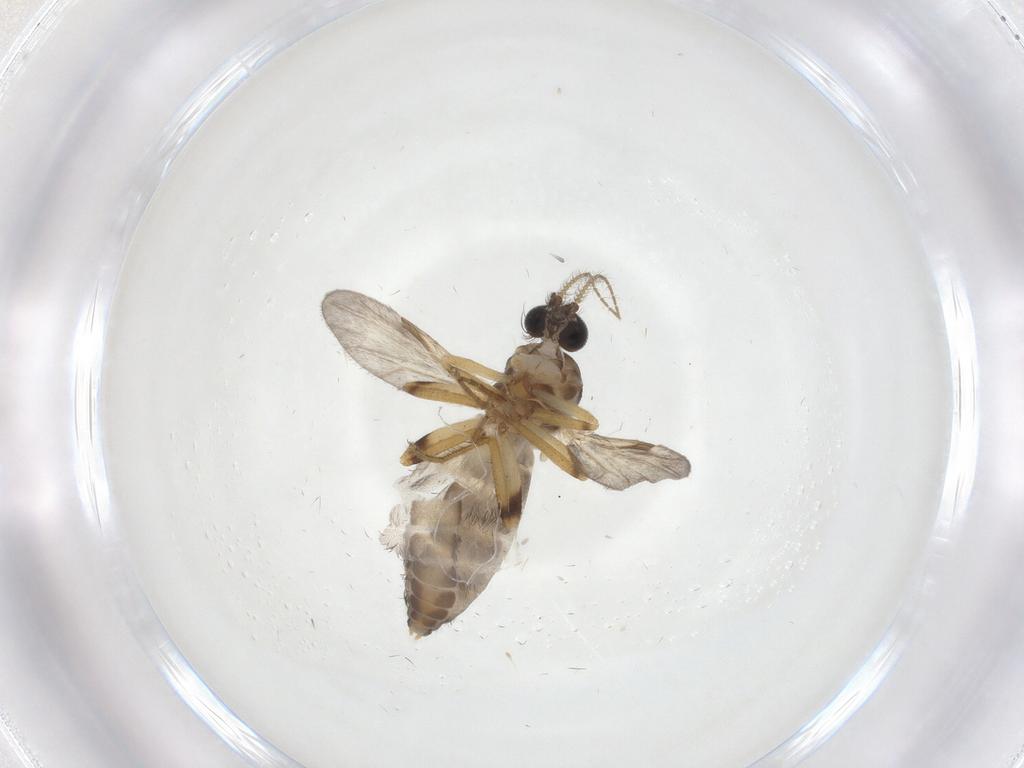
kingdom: Animalia
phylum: Arthropoda
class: Insecta
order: Diptera
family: Ceratopogonidae
